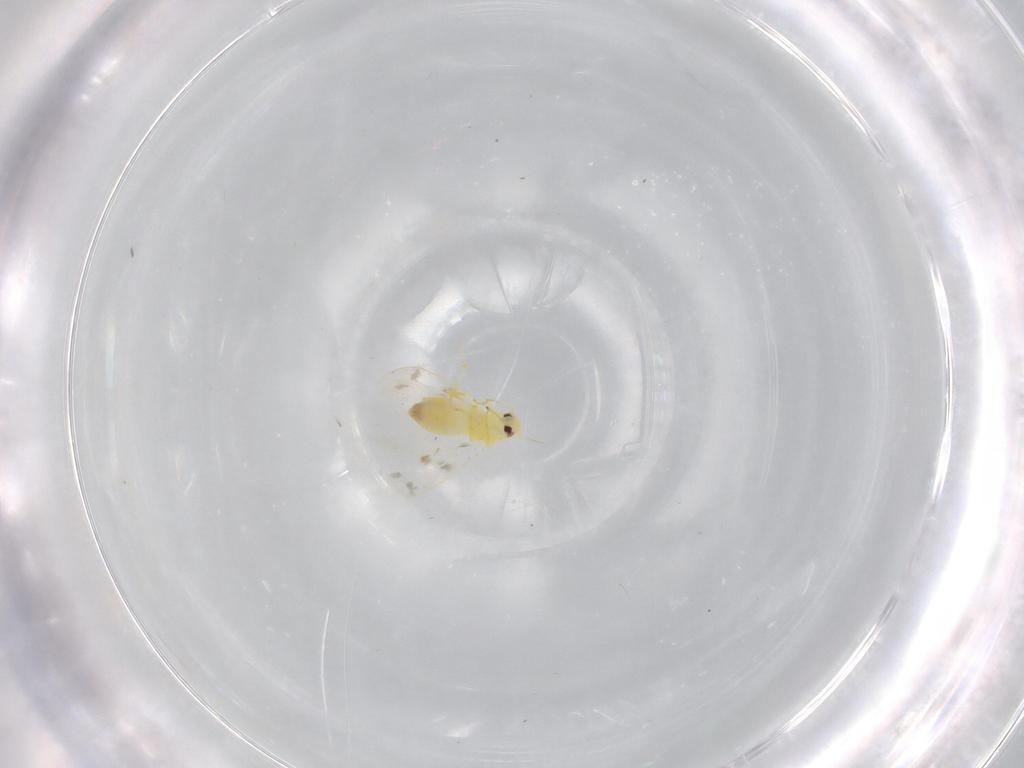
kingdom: Animalia
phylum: Arthropoda
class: Insecta
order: Hemiptera
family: Aleyrodidae
